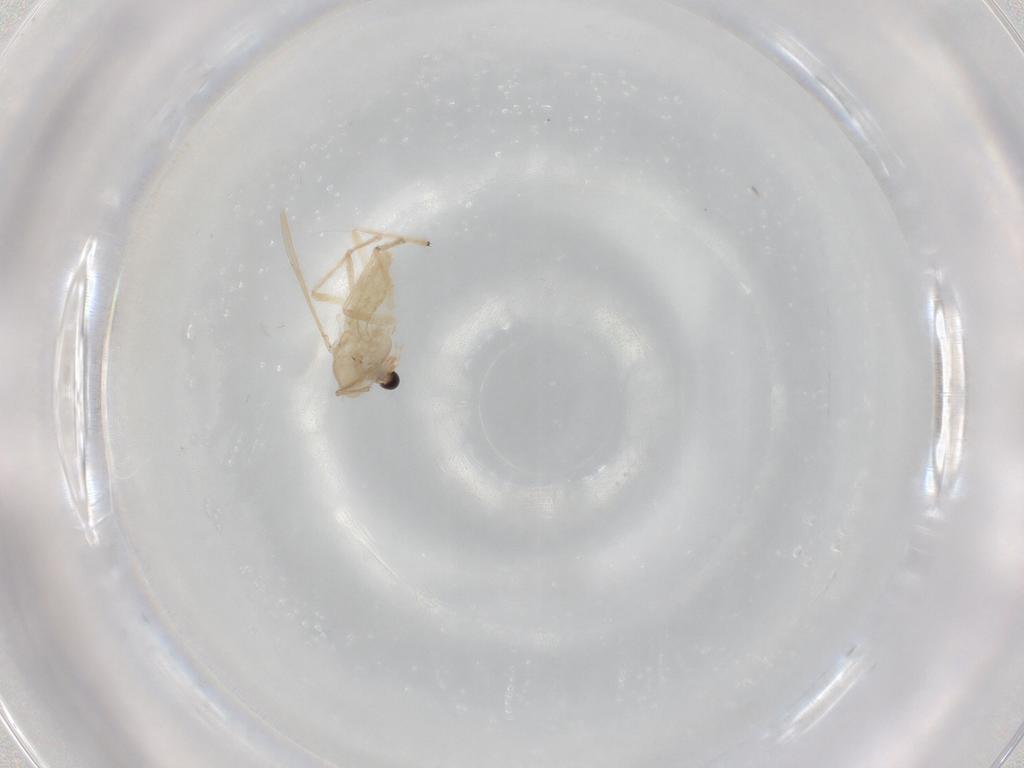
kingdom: Animalia
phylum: Arthropoda
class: Insecta
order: Diptera
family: Chironomidae
